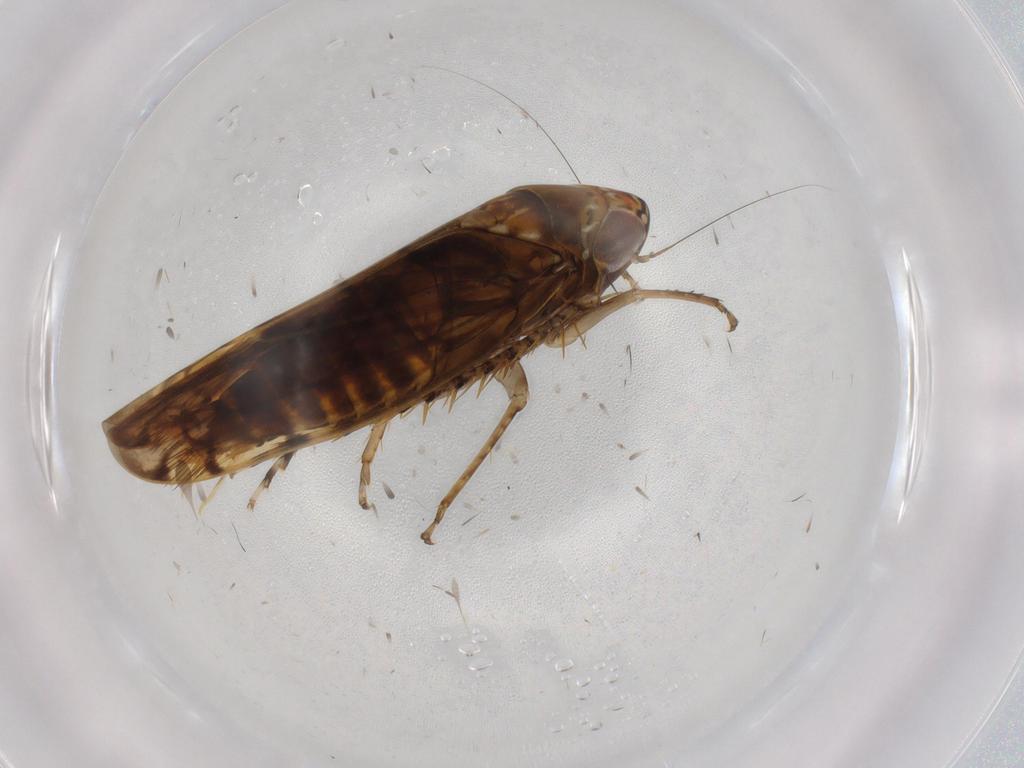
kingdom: Animalia
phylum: Arthropoda
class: Insecta
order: Hemiptera
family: Cicadellidae
